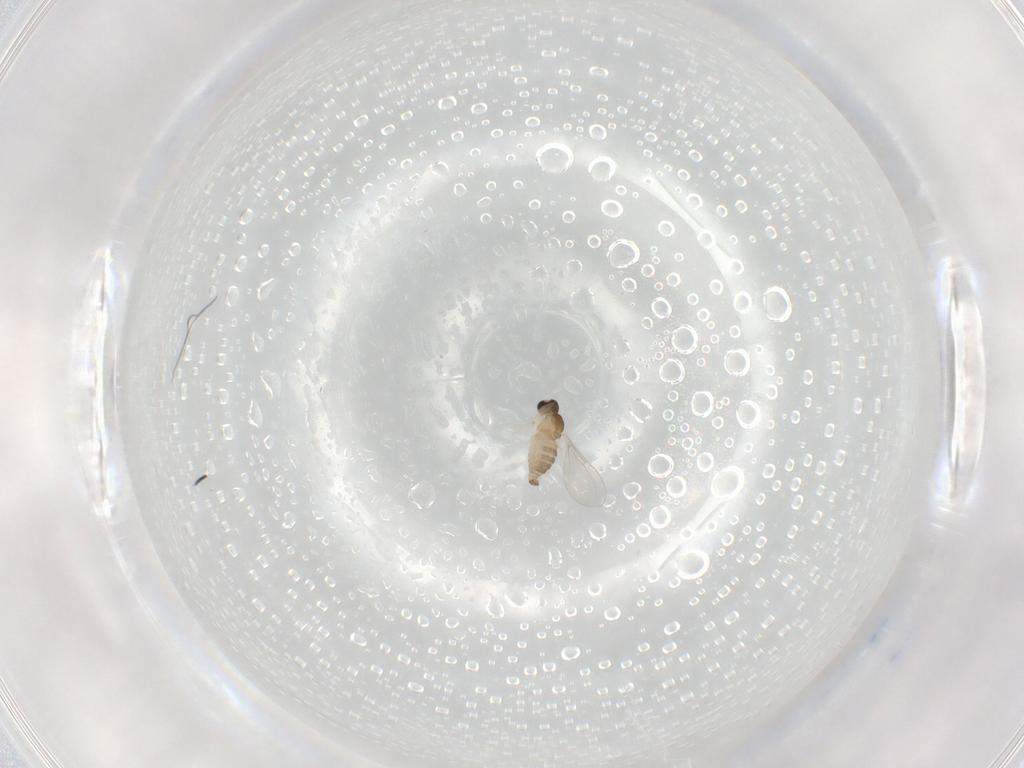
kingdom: Animalia
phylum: Arthropoda
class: Insecta
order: Diptera
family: Cecidomyiidae
